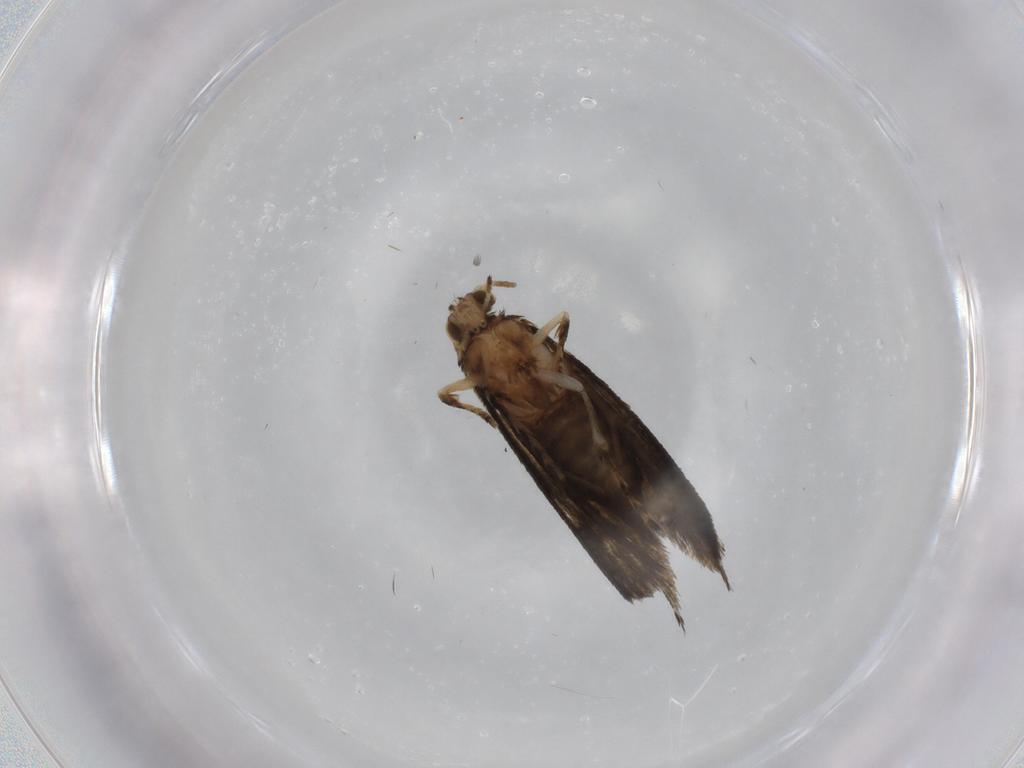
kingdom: Animalia
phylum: Arthropoda
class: Insecta
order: Lepidoptera
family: Crambidae
